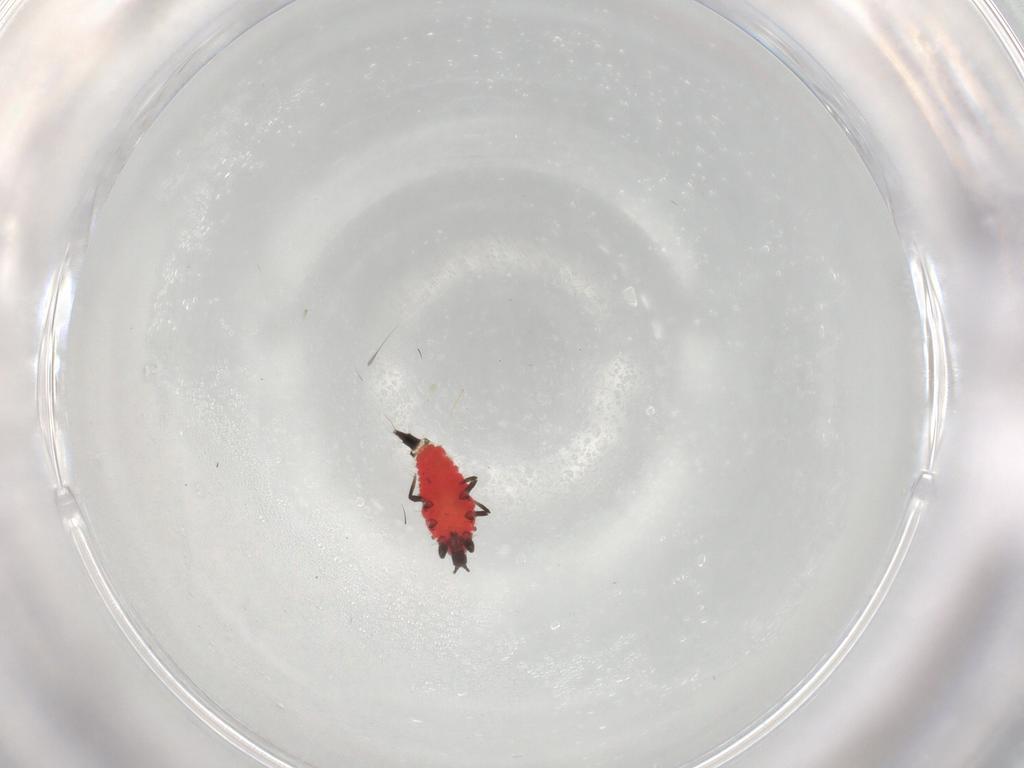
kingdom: Animalia
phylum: Arthropoda
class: Insecta
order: Thysanoptera
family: Phlaeothripidae
